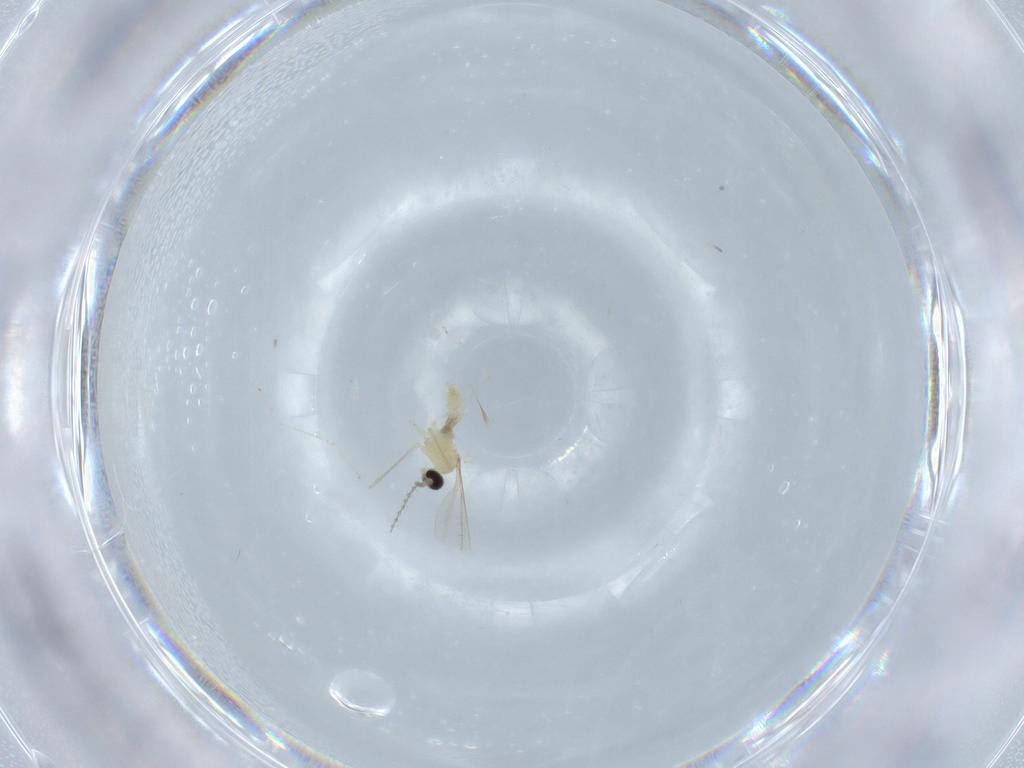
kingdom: Animalia
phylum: Arthropoda
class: Insecta
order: Diptera
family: Cecidomyiidae
